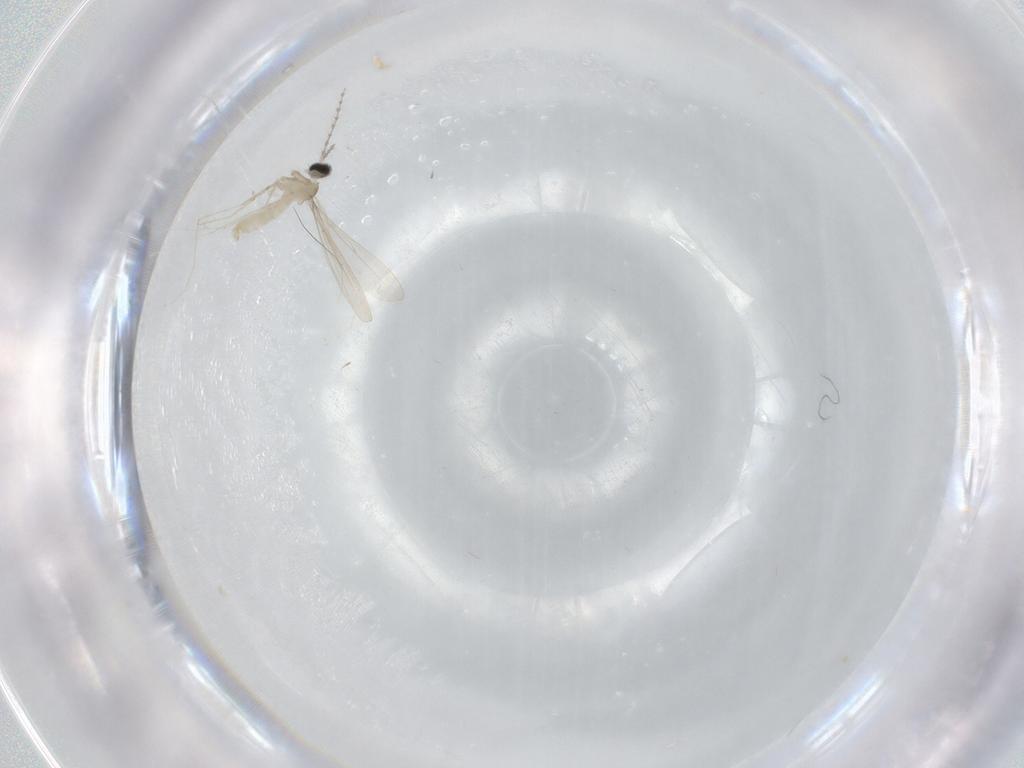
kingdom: Animalia
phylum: Arthropoda
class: Insecta
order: Diptera
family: Cecidomyiidae
